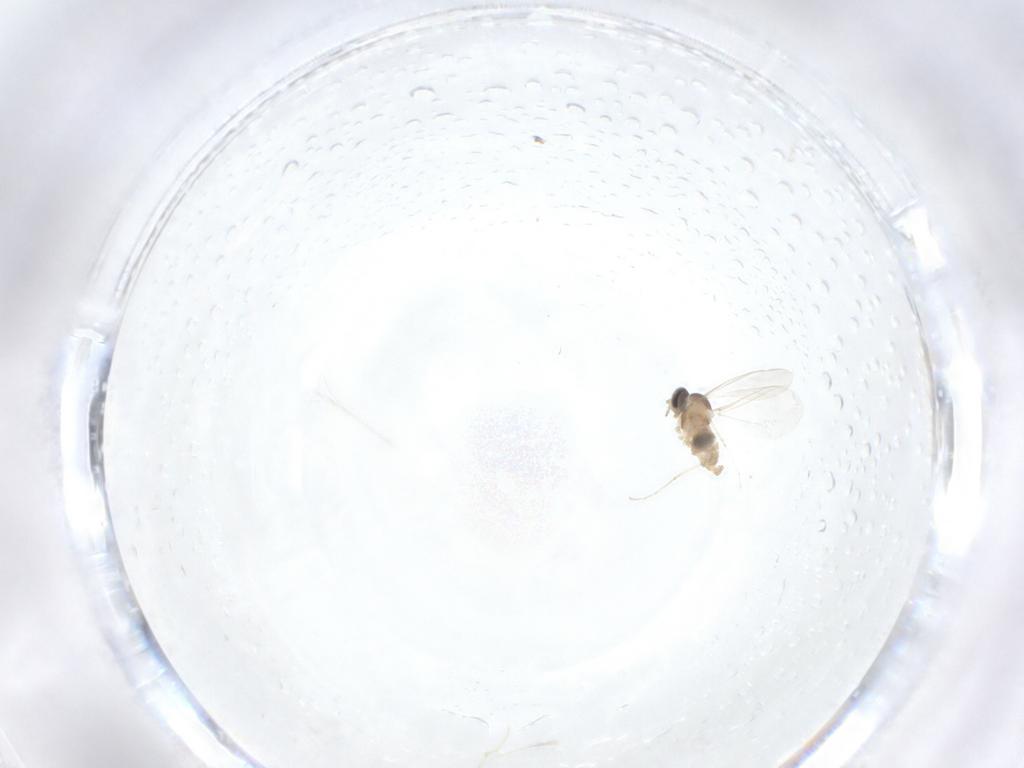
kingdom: Animalia
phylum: Arthropoda
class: Insecta
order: Diptera
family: Cecidomyiidae
